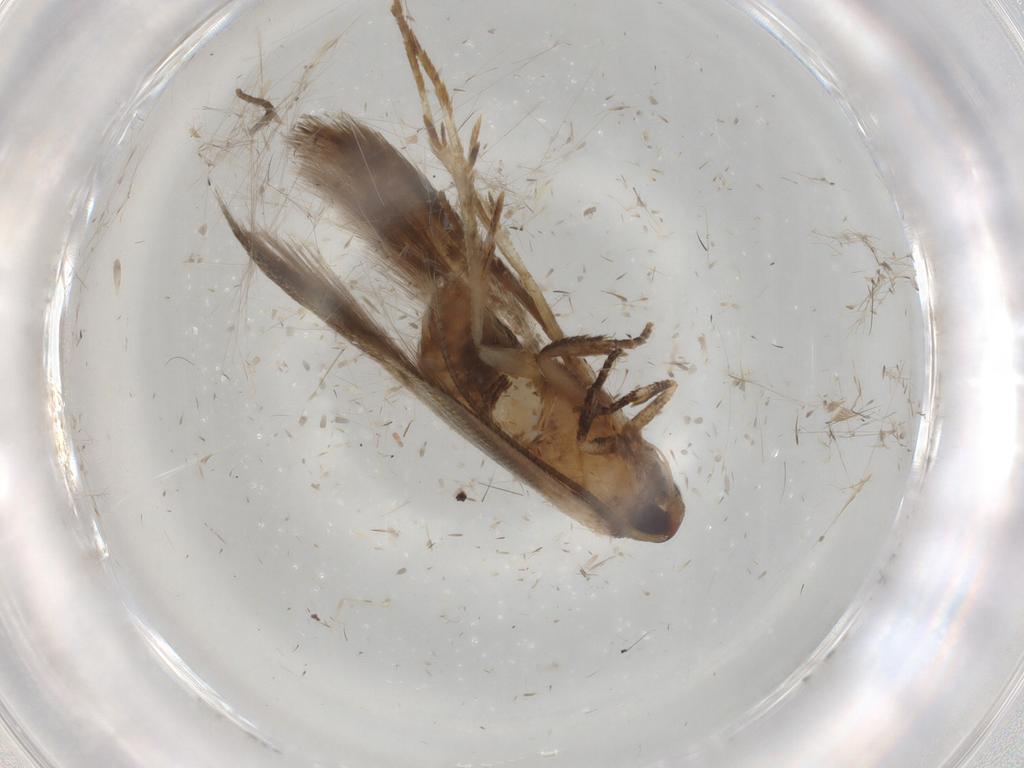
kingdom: Animalia
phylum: Arthropoda
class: Insecta
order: Lepidoptera
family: Cosmopterigidae
